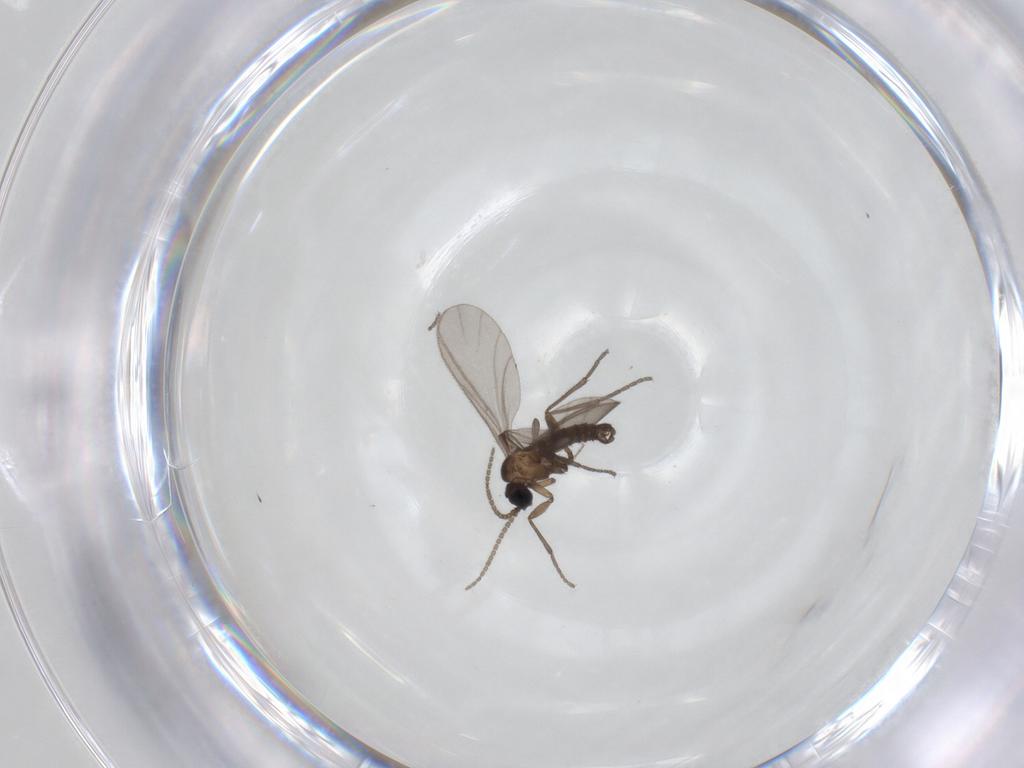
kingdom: Animalia
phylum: Arthropoda
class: Insecta
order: Diptera
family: Sciaridae
